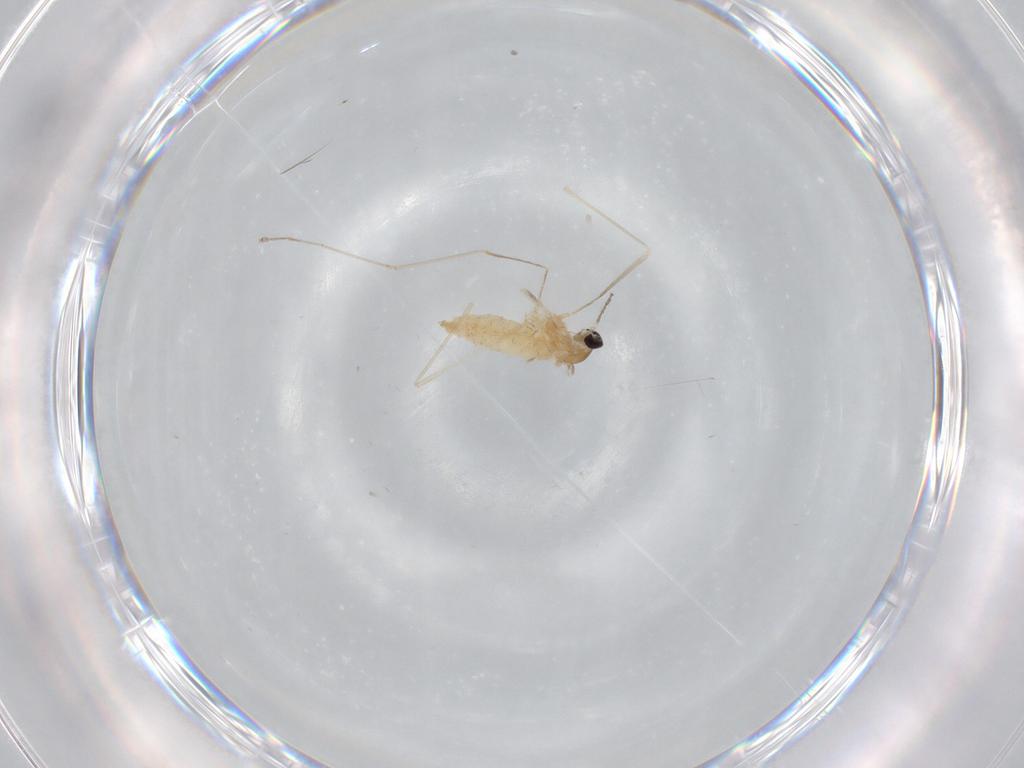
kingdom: Animalia
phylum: Arthropoda
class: Insecta
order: Diptera
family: Cecidomyiidae
